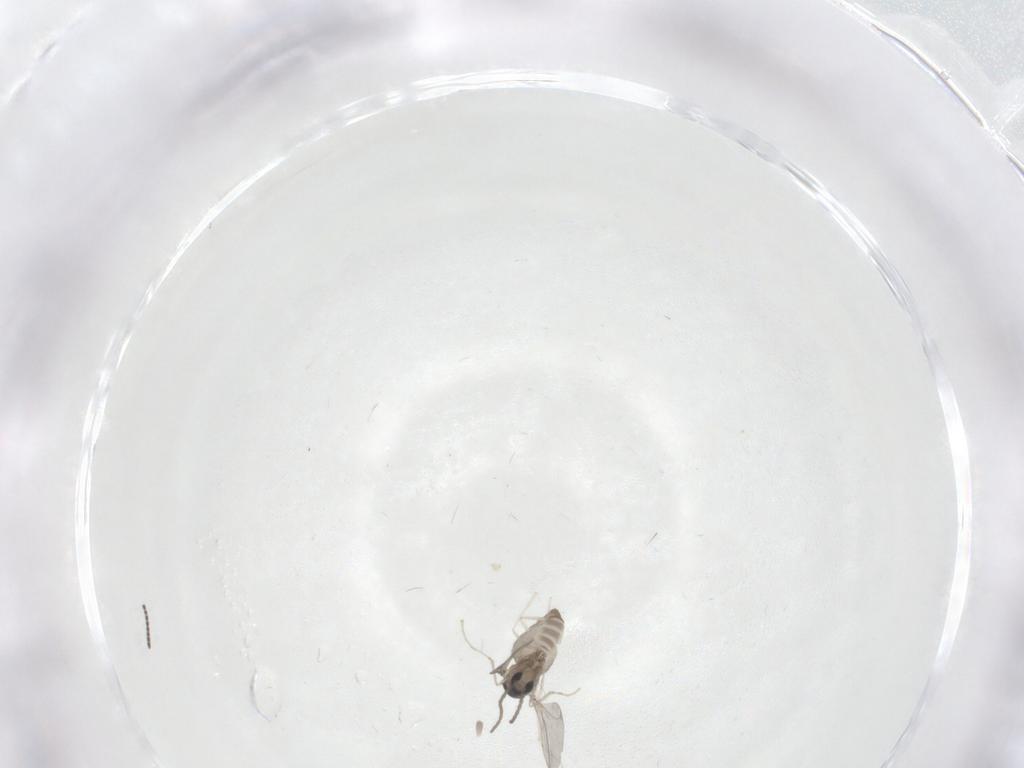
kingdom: Animalia
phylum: Arthropoda
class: Insecta
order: Diptera
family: Sciaridae
